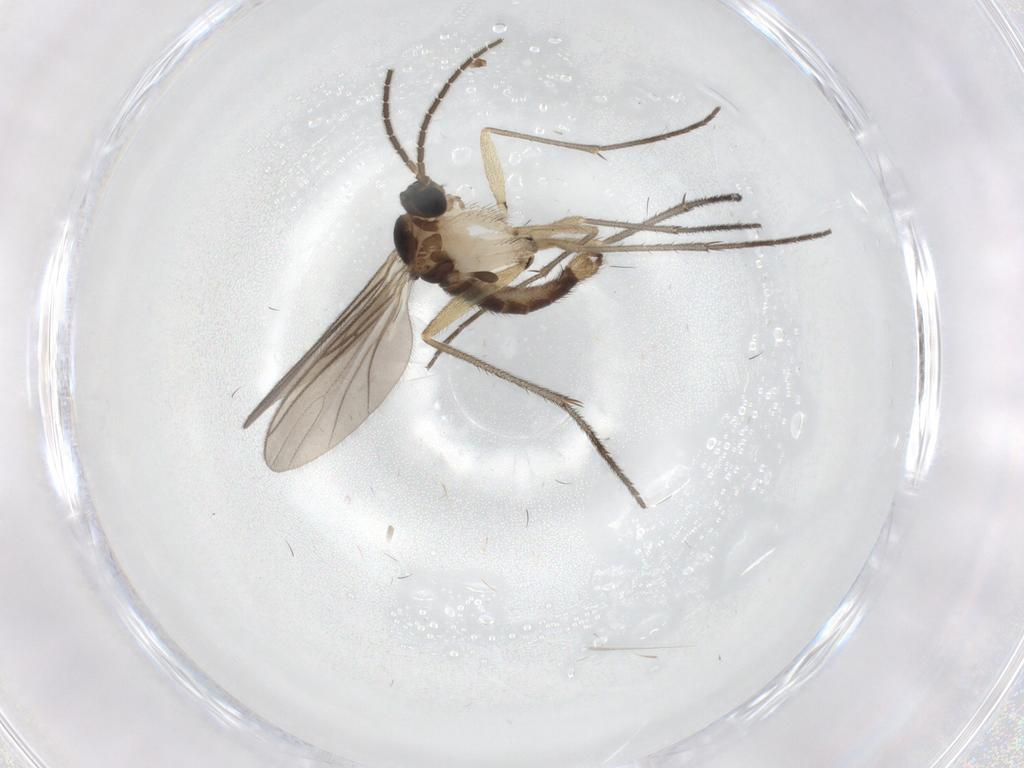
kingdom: Animalia
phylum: Arthropoda
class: Insecta
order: Diptera
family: Sciaridae
